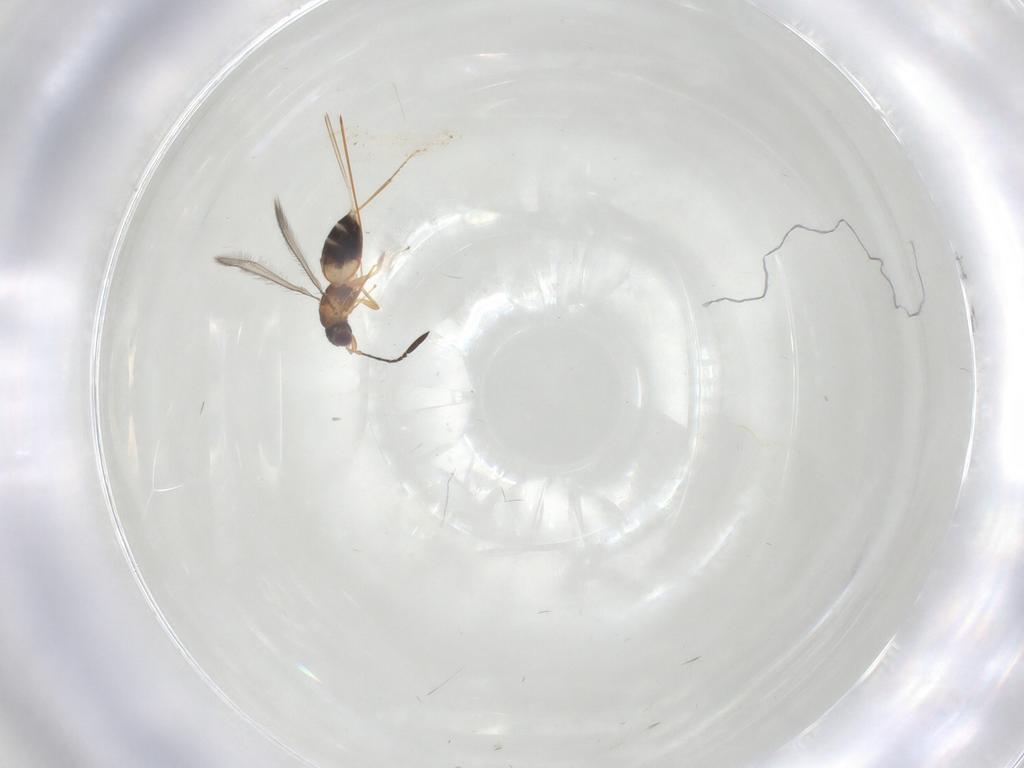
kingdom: Animalia
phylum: Arthropoda
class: Insecta
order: Hymenoptera
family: Mymaridae
